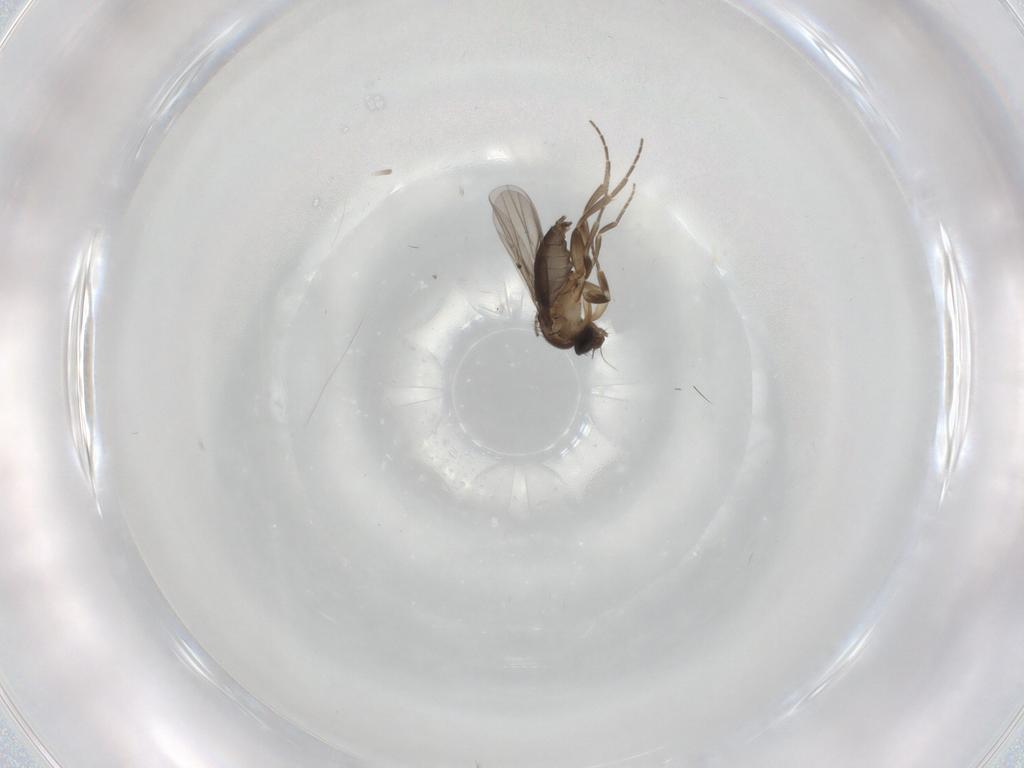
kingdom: Animalia
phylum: Arthropoda
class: Insecta
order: Diptera
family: Phoridae
